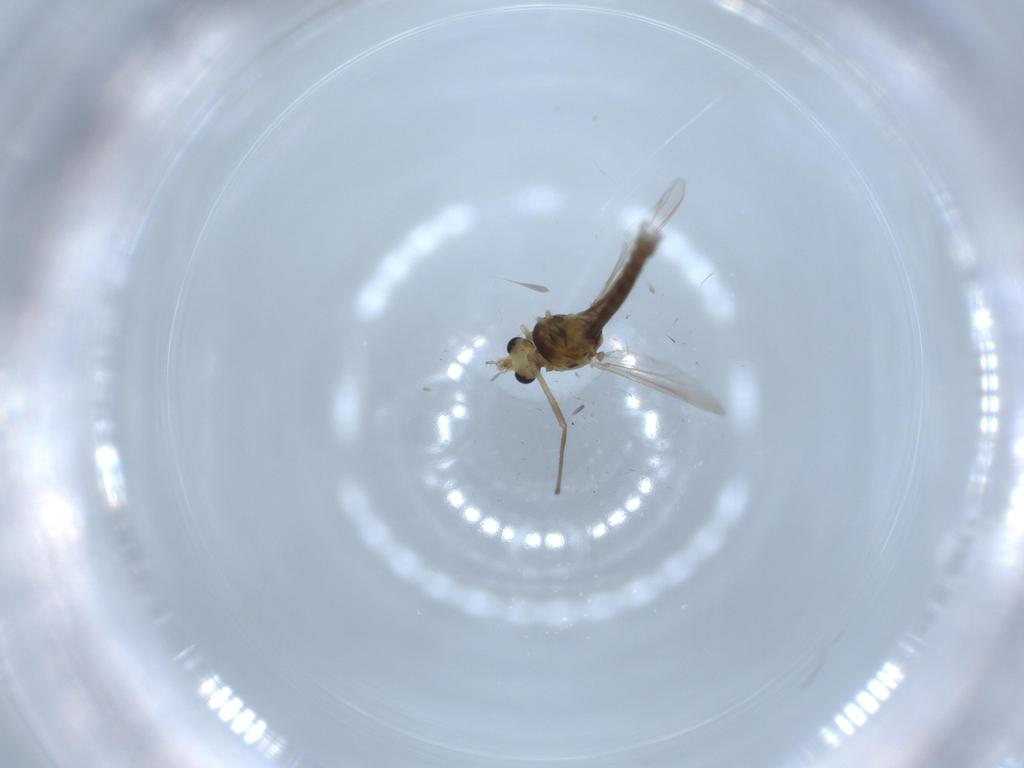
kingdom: Animalia
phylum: Arthropoda
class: Insecta
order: Diptera
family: Chironomidae
